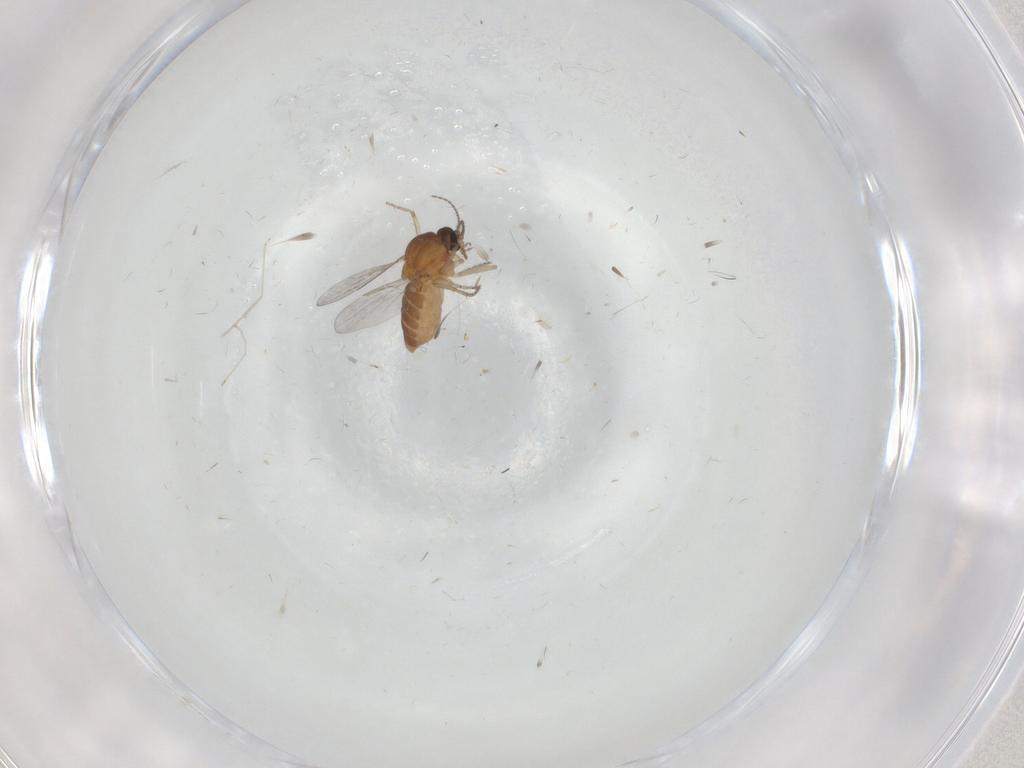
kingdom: Animalia
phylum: Arthropoda
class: Insecta
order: Diptera
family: Ceratopogonidae
